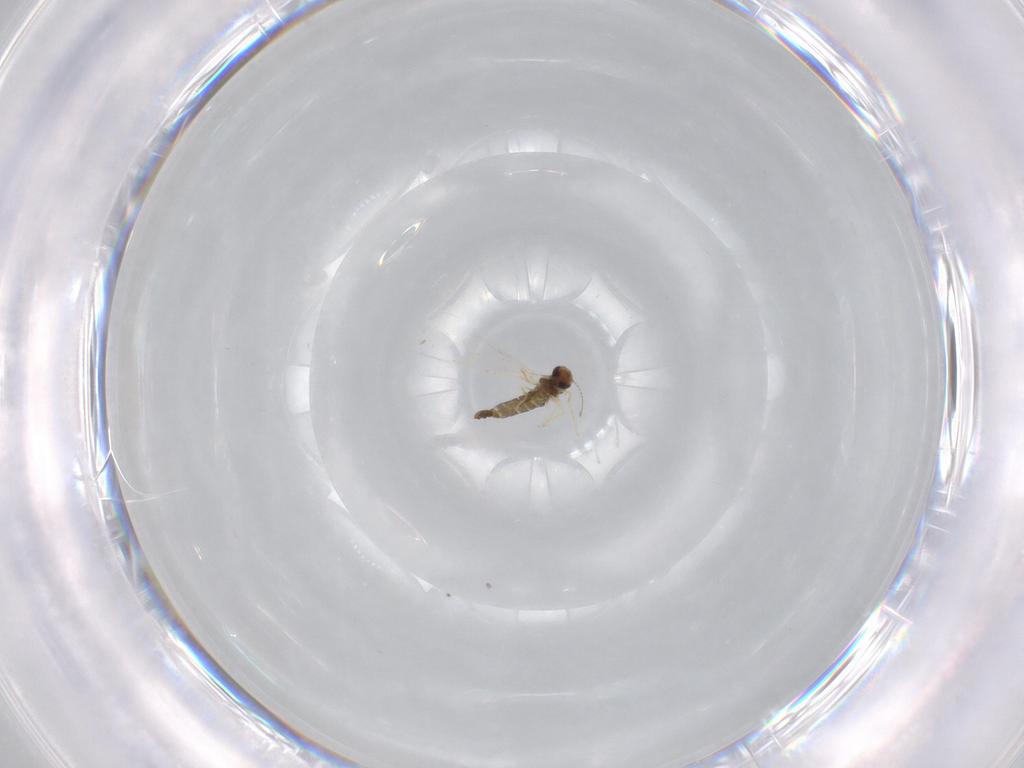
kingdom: Animalia
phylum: Arthropoda
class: Insecta
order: Diptera
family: Chironomidae
